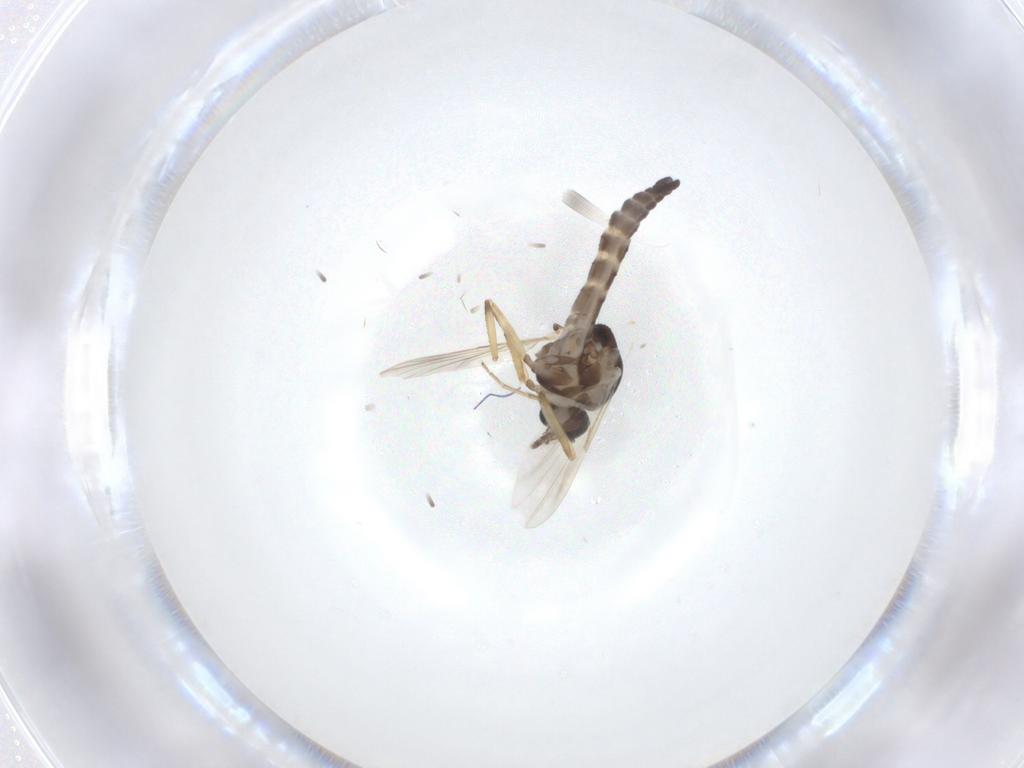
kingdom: Animalia
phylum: Arthropoda
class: Insecta
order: Diptera
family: Ceratopogonidae
